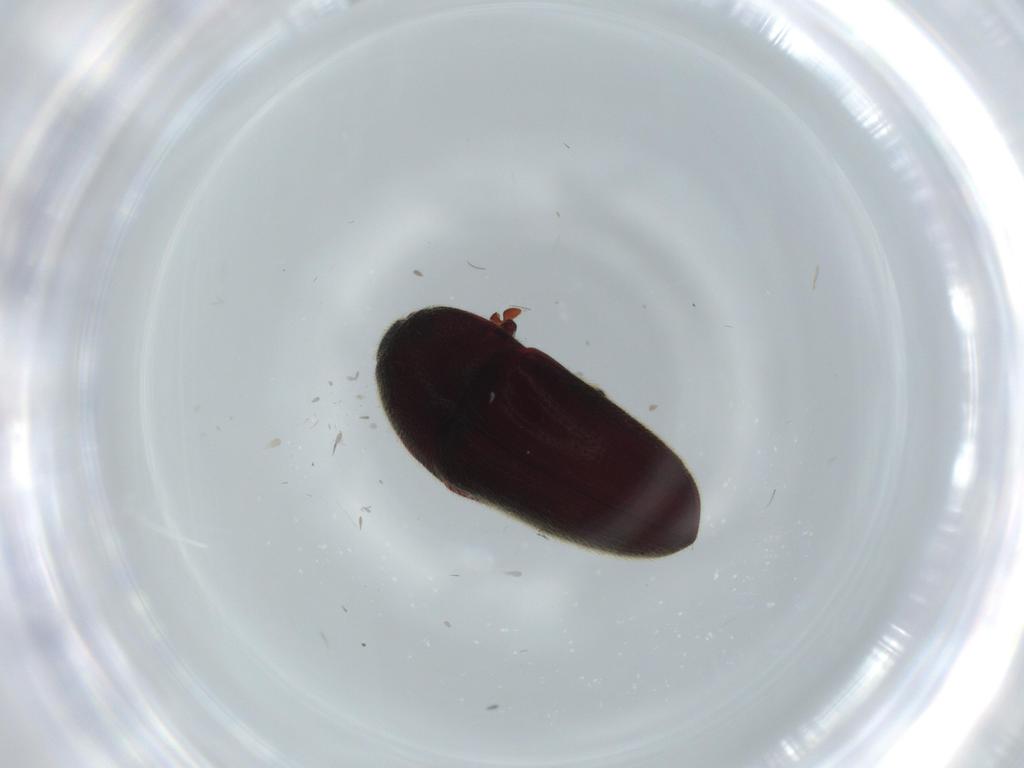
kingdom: Animalia
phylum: Arthropoda
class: Insecta
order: Coleoptera
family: Throscidae
